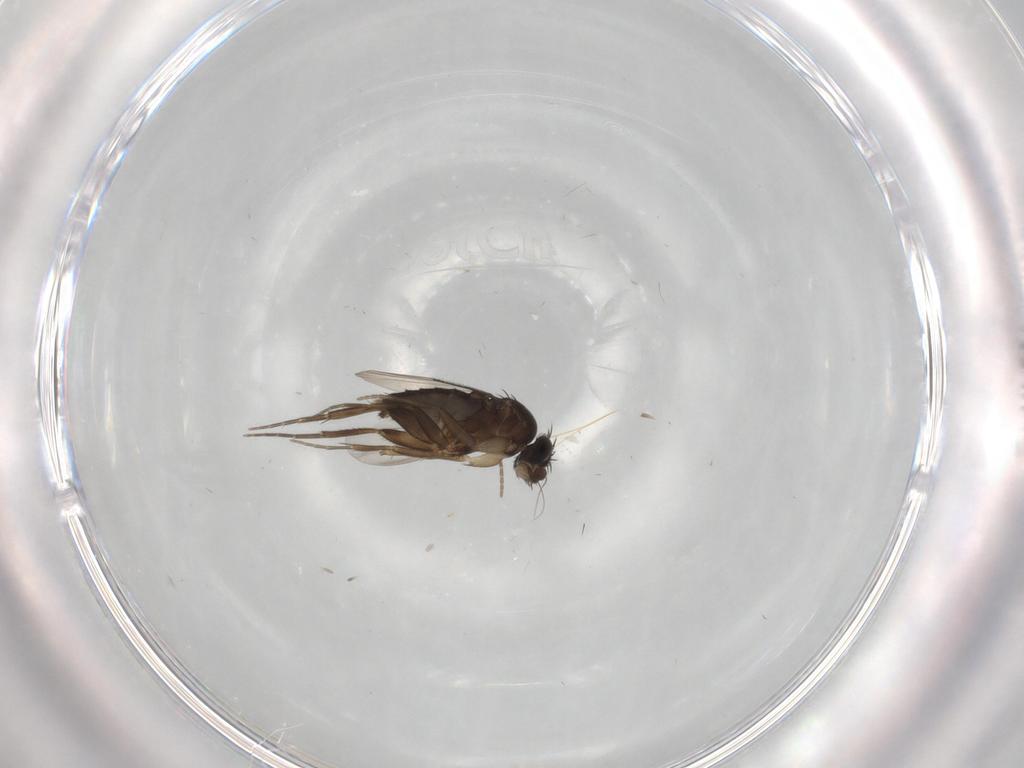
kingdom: Animalia
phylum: Arthropoda
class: Insecta
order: Diptera
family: Phoridae
